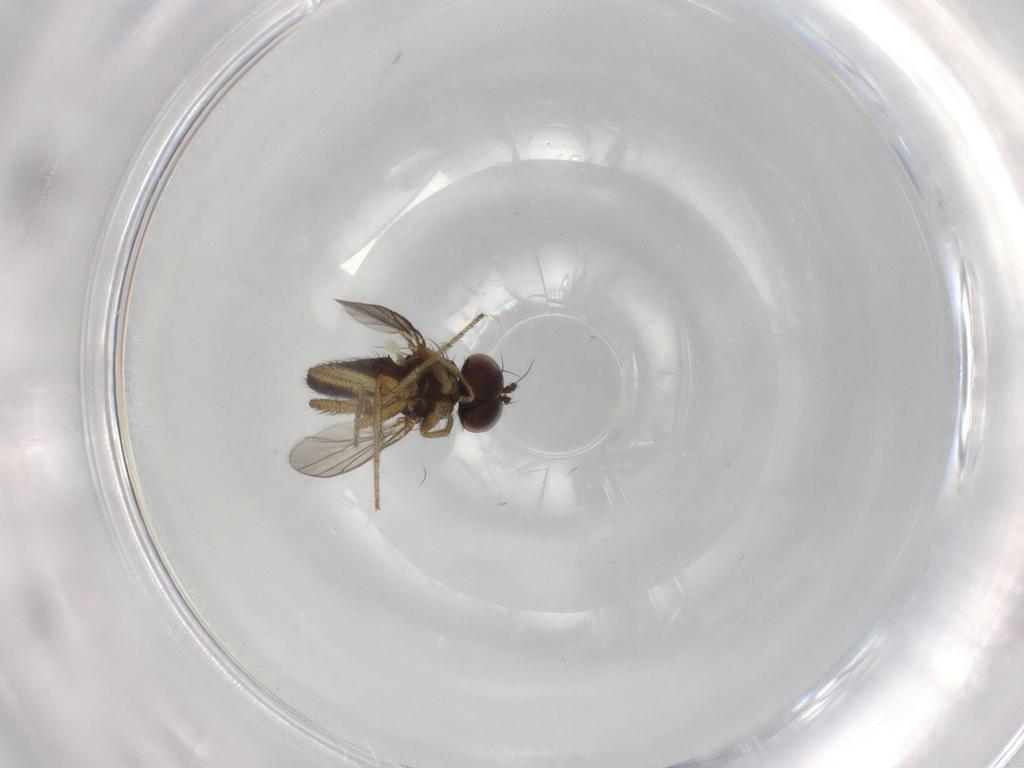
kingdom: Animalia
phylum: Arthropoda
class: Insecta
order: Diptera
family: Chironomidae
